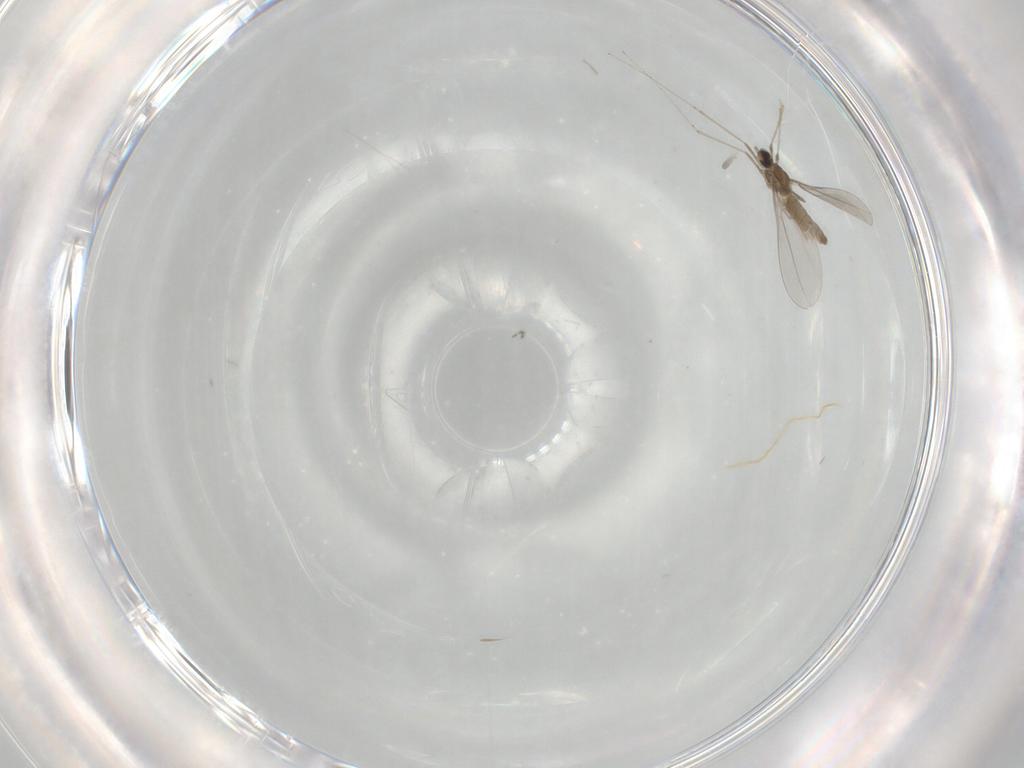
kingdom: Animalia
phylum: Arthropoda
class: Insecta
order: Diptera
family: Cecidomyiidae
